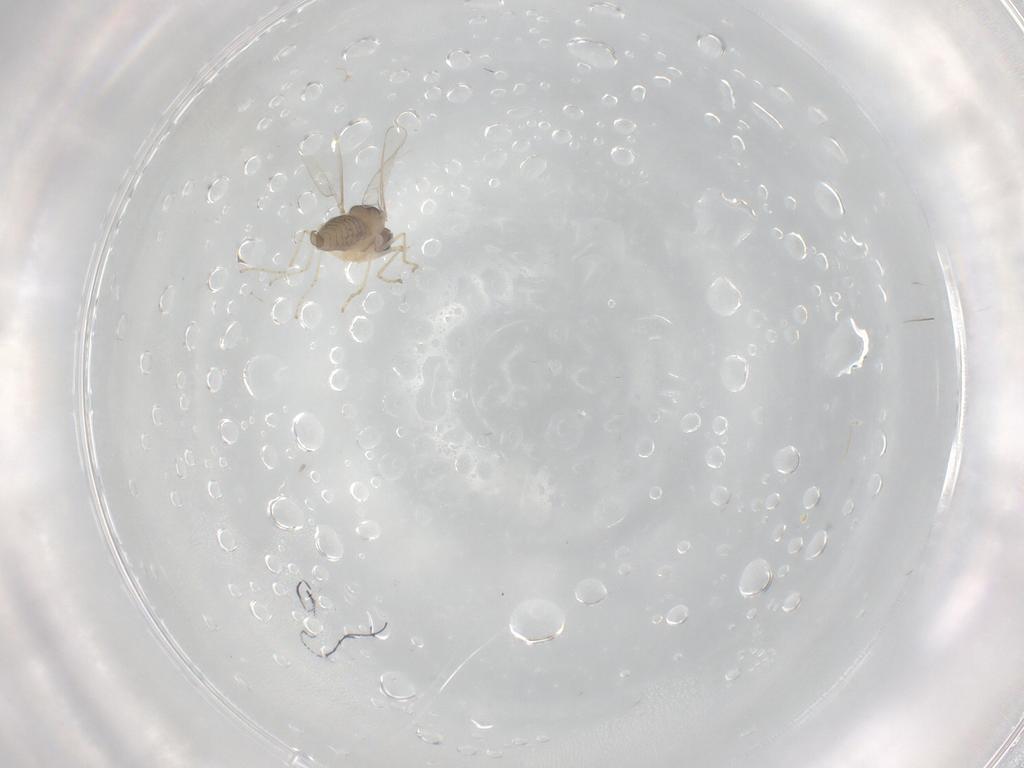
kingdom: Animalia
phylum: Arthropoda
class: Insecta
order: Diptera
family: Cecidomyiidae
